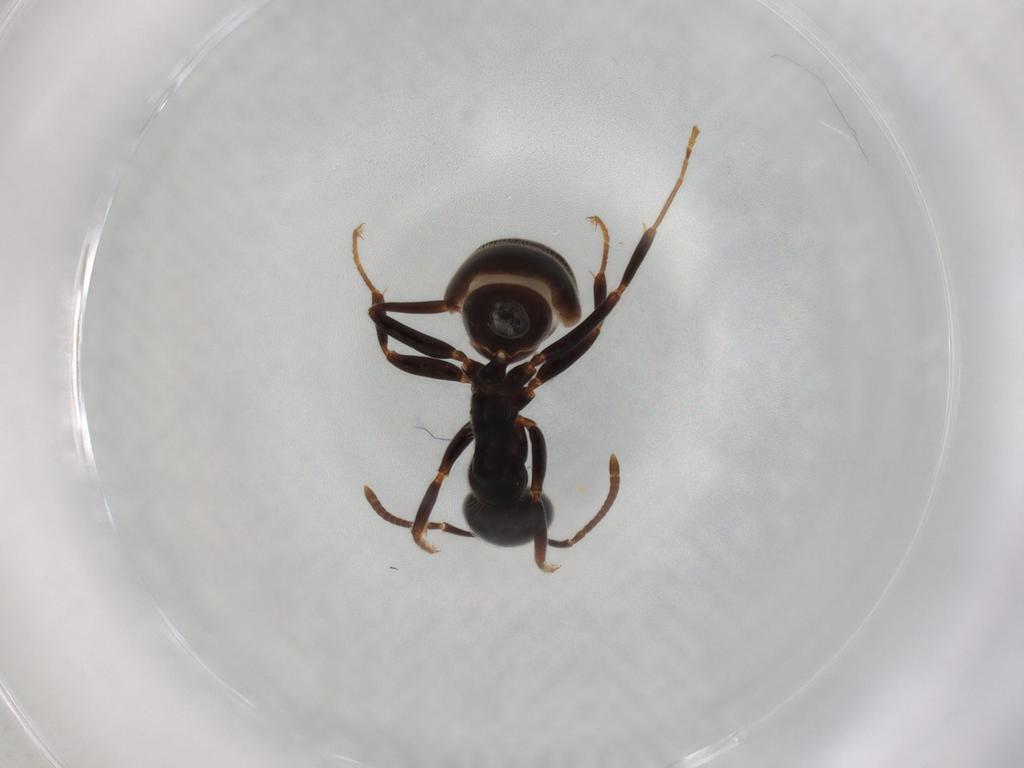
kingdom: Animalia
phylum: Arthropoda
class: Insecta
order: Hymenoptera
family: Formicidae
